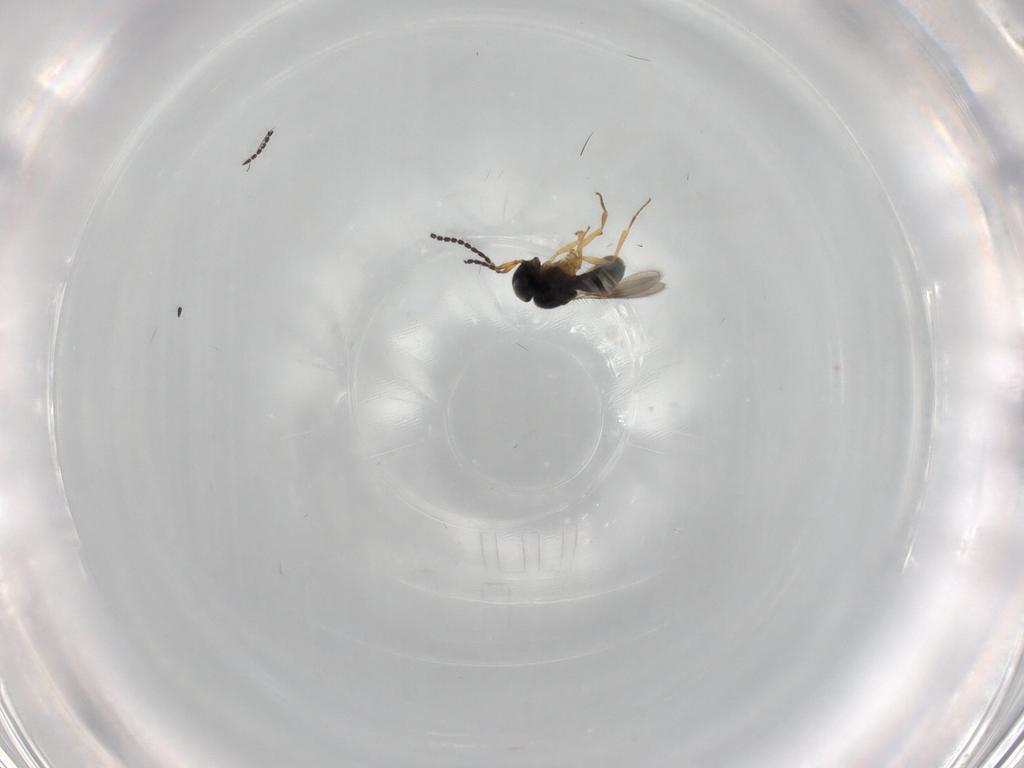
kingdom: Animalia
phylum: Arthropoda
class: Insecta
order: Hymenoptera
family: Scelionidae
